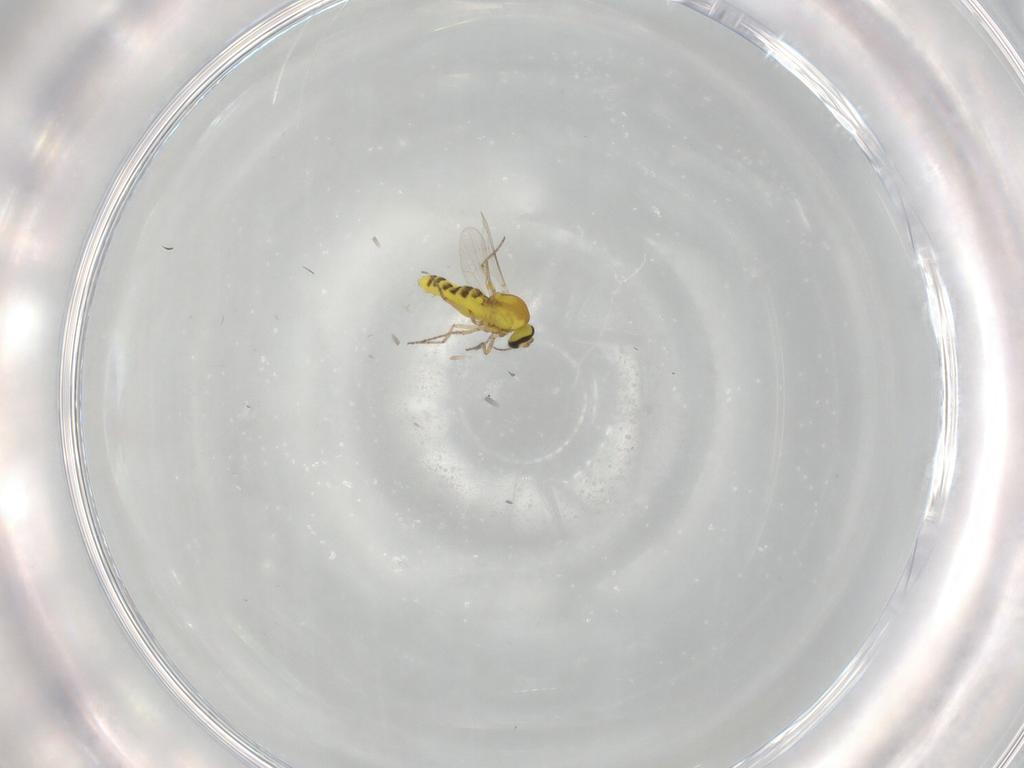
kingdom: Animalia
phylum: Arthropoda
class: Insecta
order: Diptera
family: Ceratopogonidae
